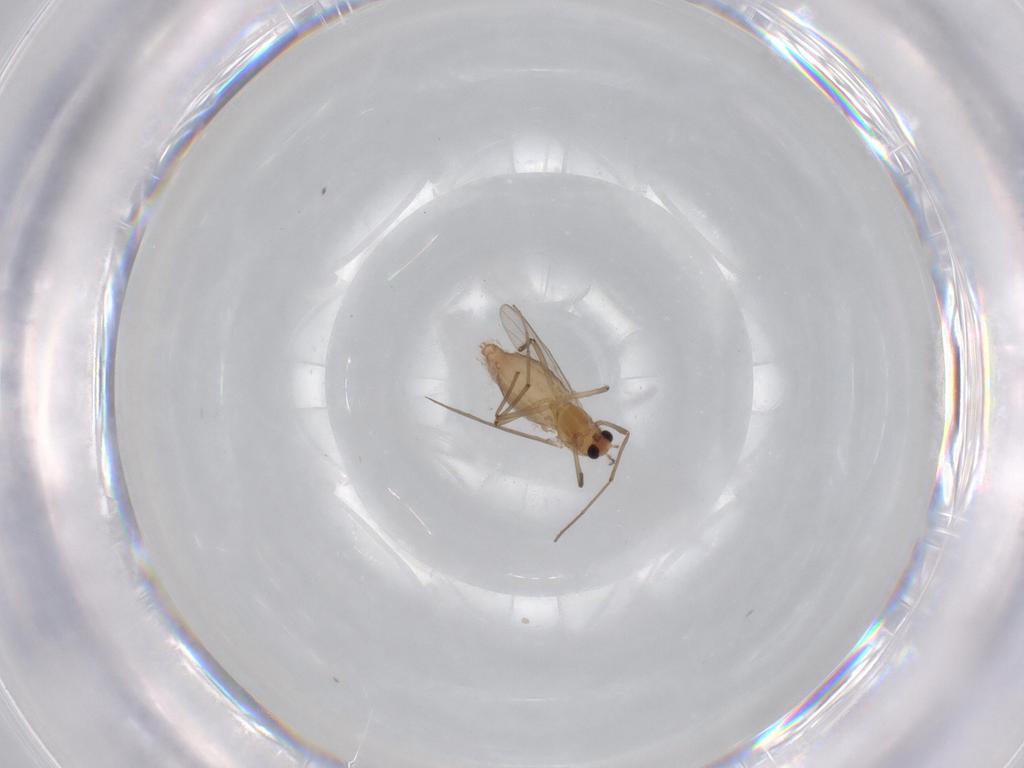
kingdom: Animalia
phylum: Arthropoda
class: Insecta
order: Diptera
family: Chironomidae
